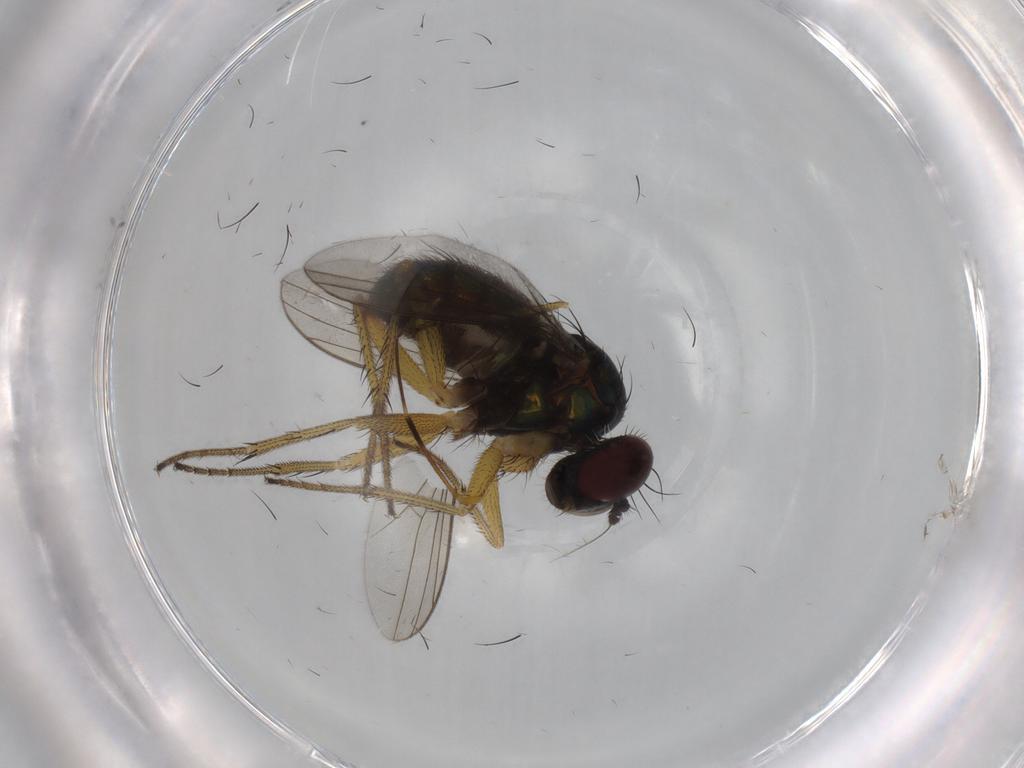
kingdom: Animalia
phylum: Arthropoda
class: Insecta
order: Diptera
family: Dolichopodidae
